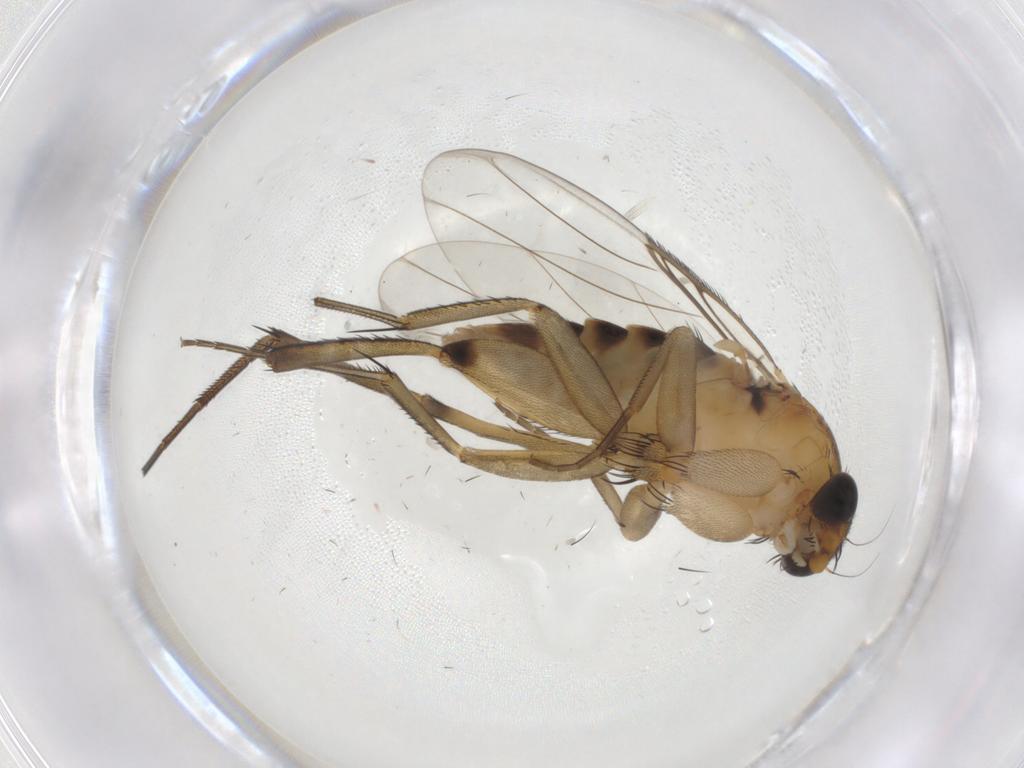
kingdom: Animalia
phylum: Arthropoda
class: Insecta
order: Diptera
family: Phoridae
